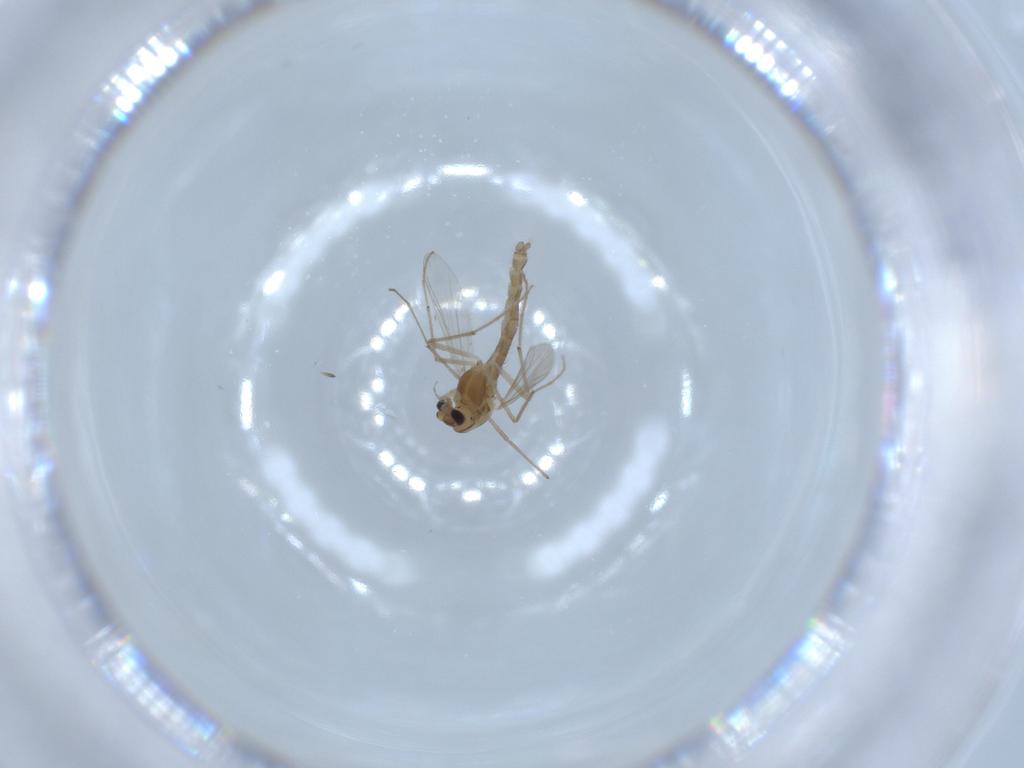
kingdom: Animalia
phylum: Arthropoda
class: Insecta
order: Diptera
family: Chironomidae
